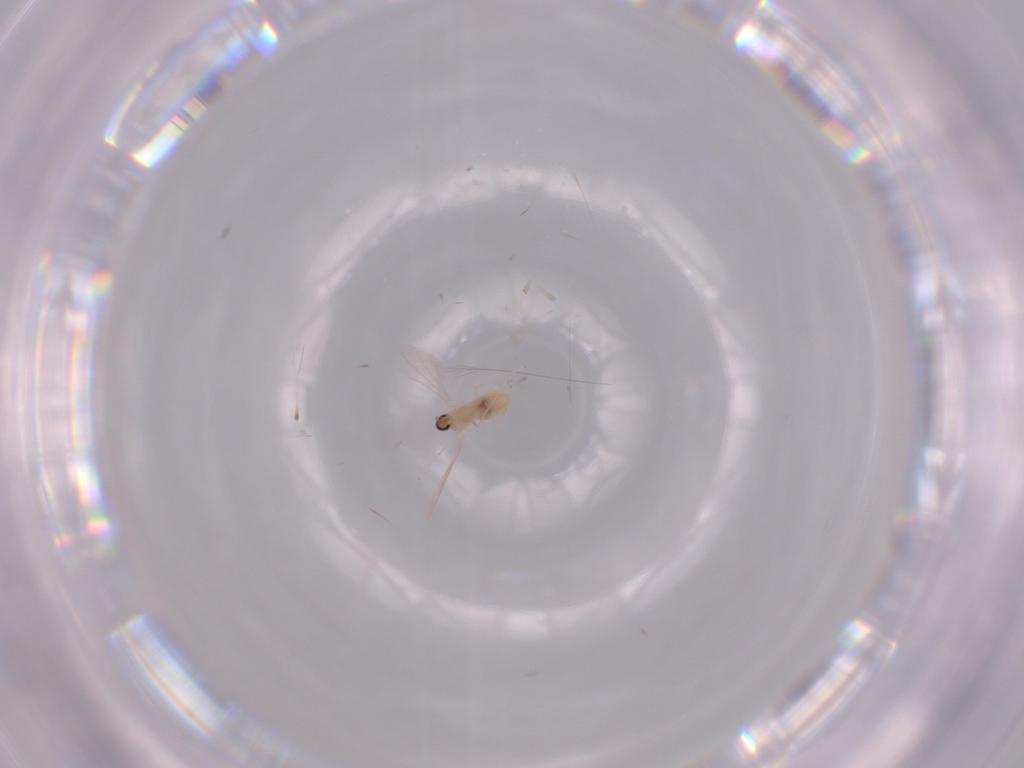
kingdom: Animalia
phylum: Arthropoda
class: Insecta
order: Diptera
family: Cecidomyiidae
